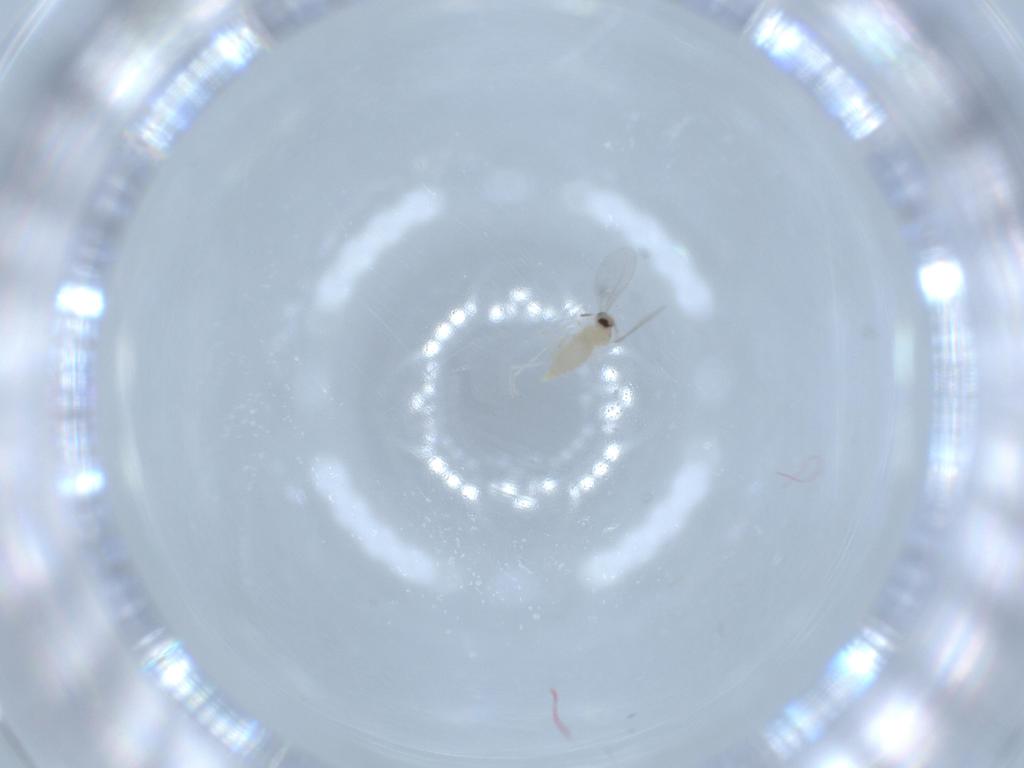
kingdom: Animalia
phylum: Arthropoda
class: Insecta
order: Diptera
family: Cecidomyiidae
